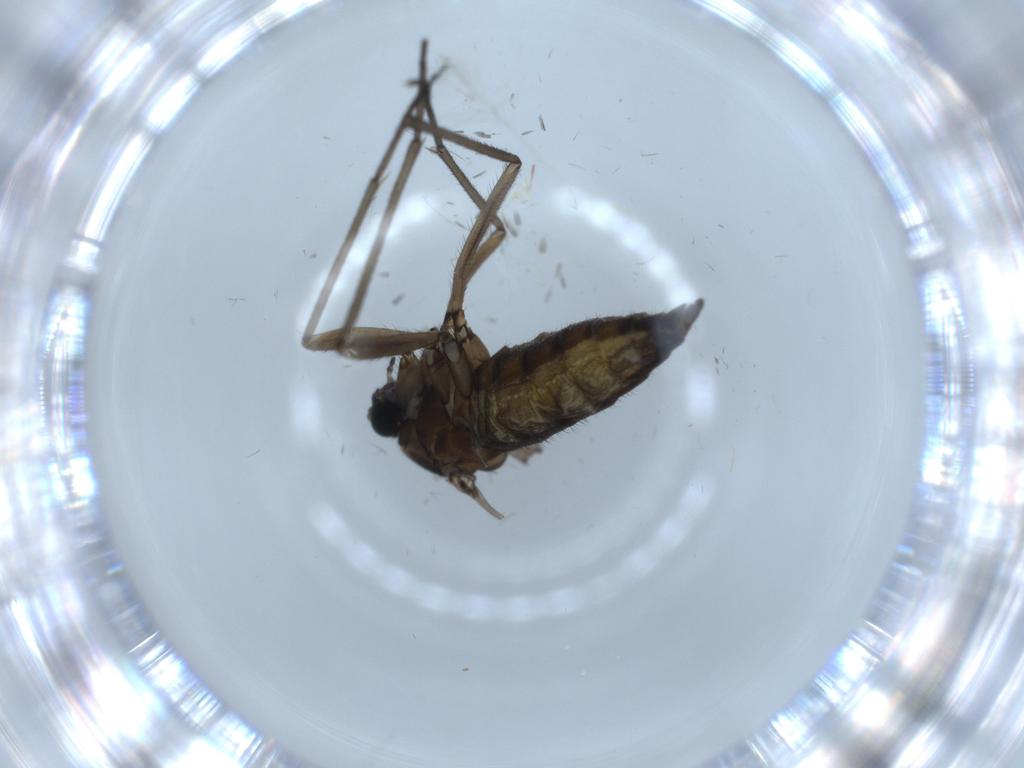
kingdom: Animalia
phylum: Arthropoda
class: Insecta
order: Diptera
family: Sciaridae
